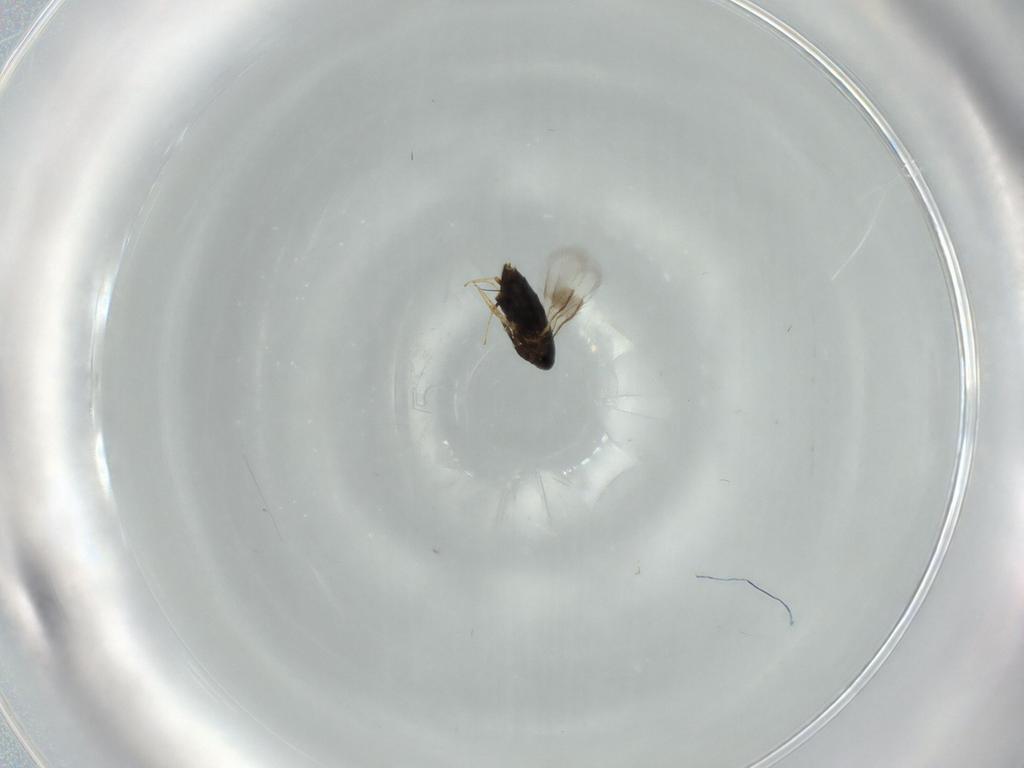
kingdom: Animalia
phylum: Arthropoda
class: Insecta
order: Hymenoptera
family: Signiphoridae
